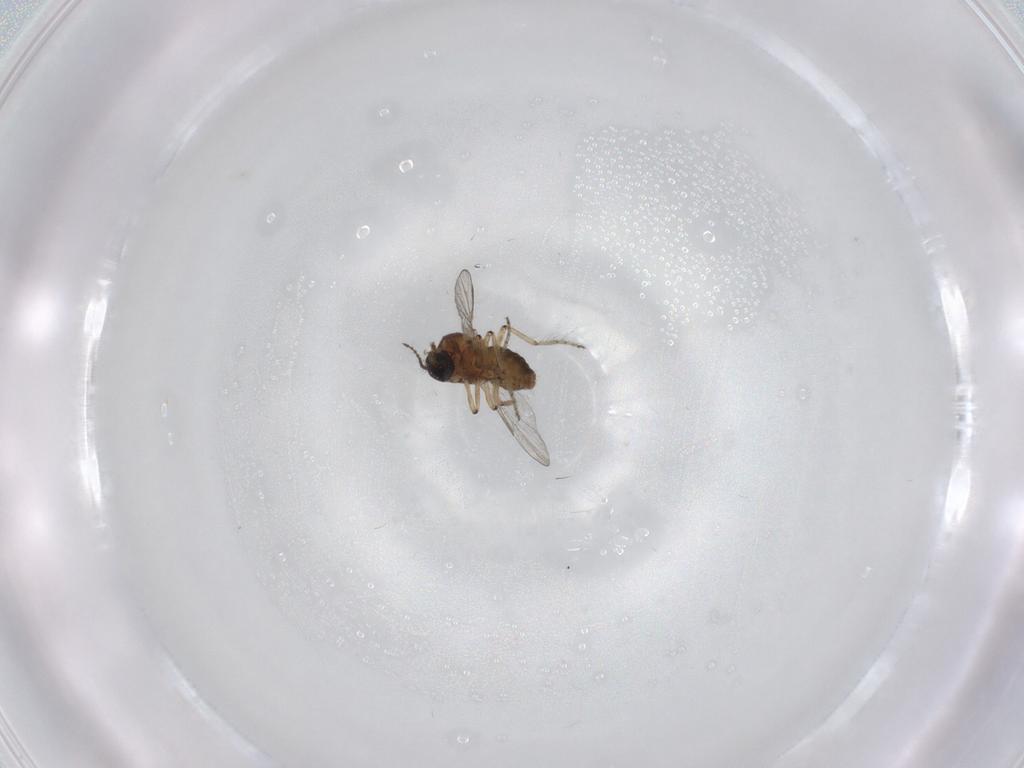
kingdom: Animalia
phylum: Arthropoda
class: Insecta
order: Diptera
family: Ceratopogonidae
